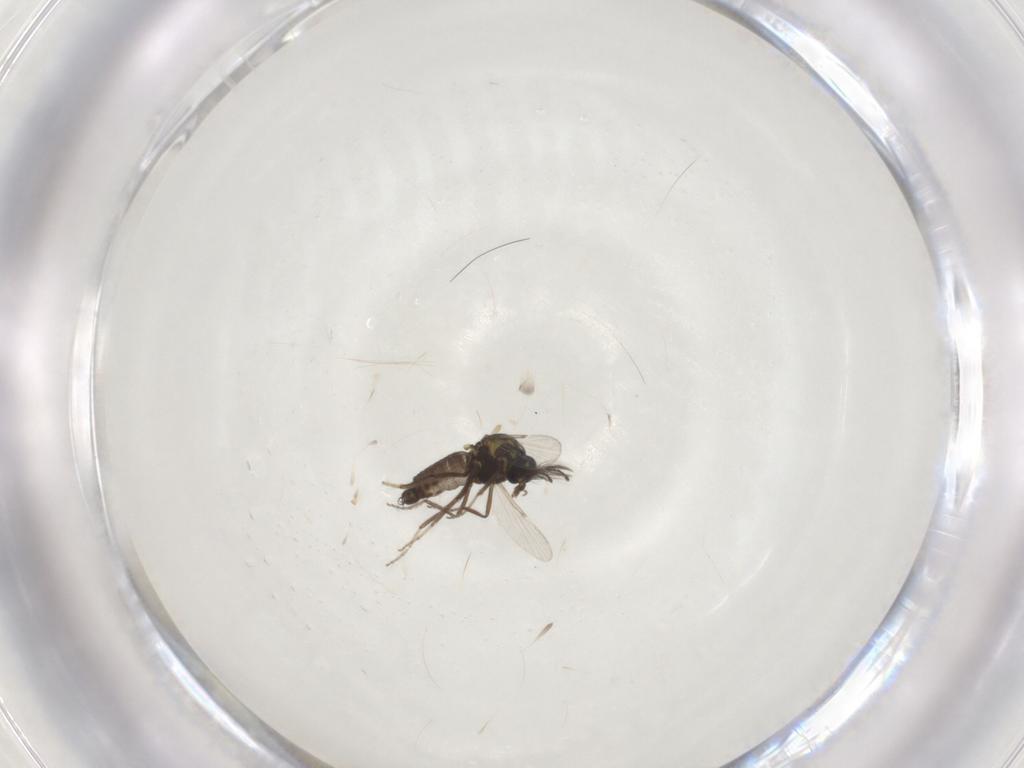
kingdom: Animalia
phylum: Arthropoda
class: Insecta
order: Diptera
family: Ceratopogonidae
